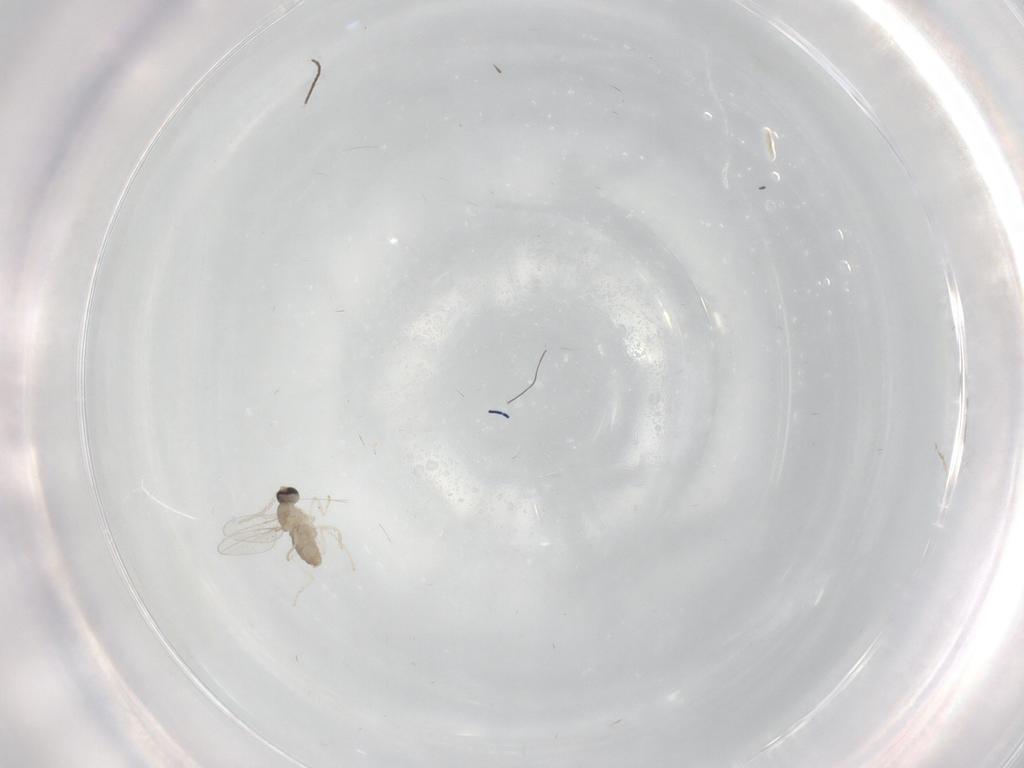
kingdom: Animalia
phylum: Arthropoda
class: Insecta
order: Diptera
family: Cecidomyiidae
